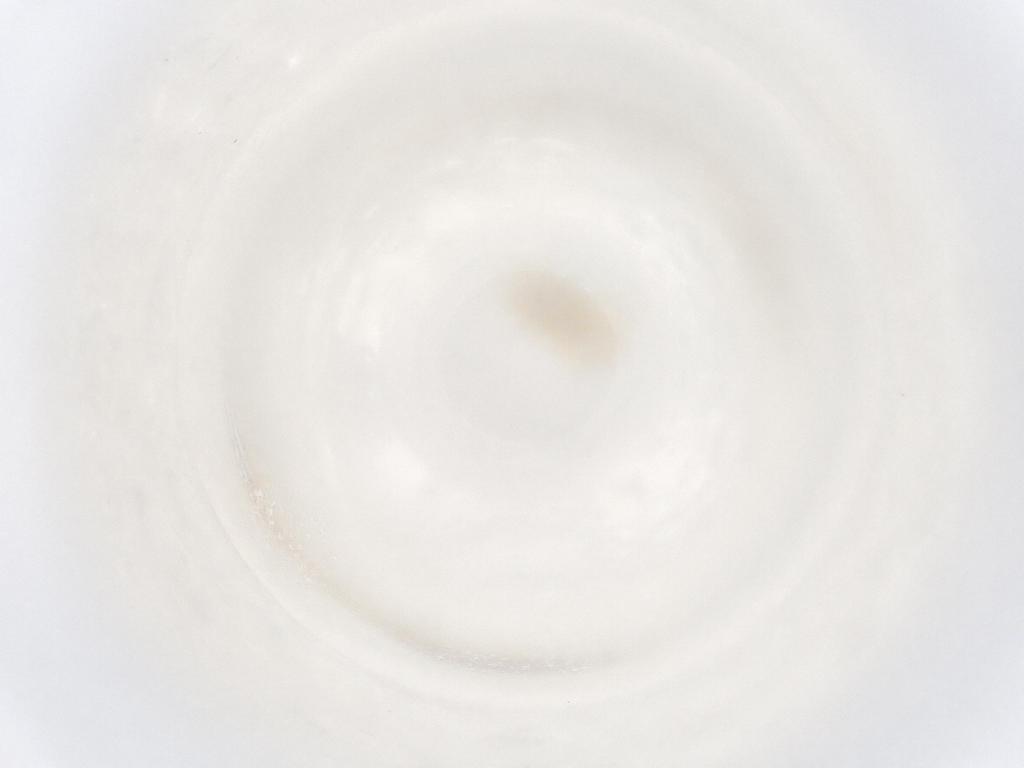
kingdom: Animalia
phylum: Arthropoda
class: Insecta
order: Hemiptera
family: Aleyrodidae
